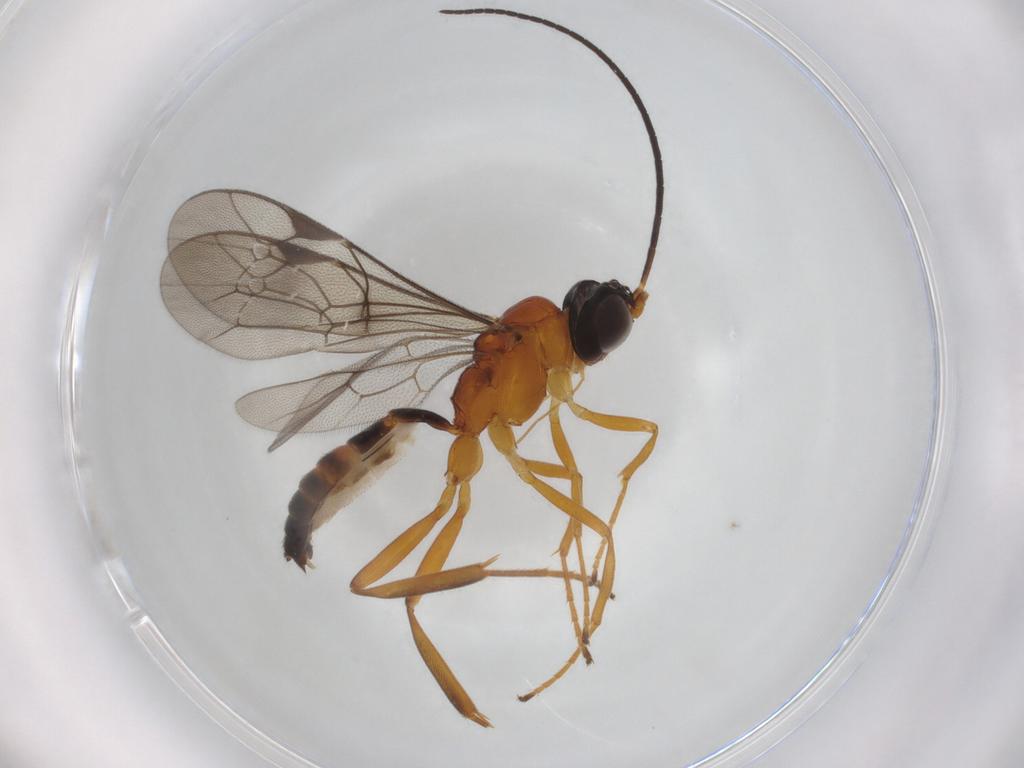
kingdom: Animalia
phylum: Arthropoda
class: Insecta
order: Hymenoptera
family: Ichneumonidae
